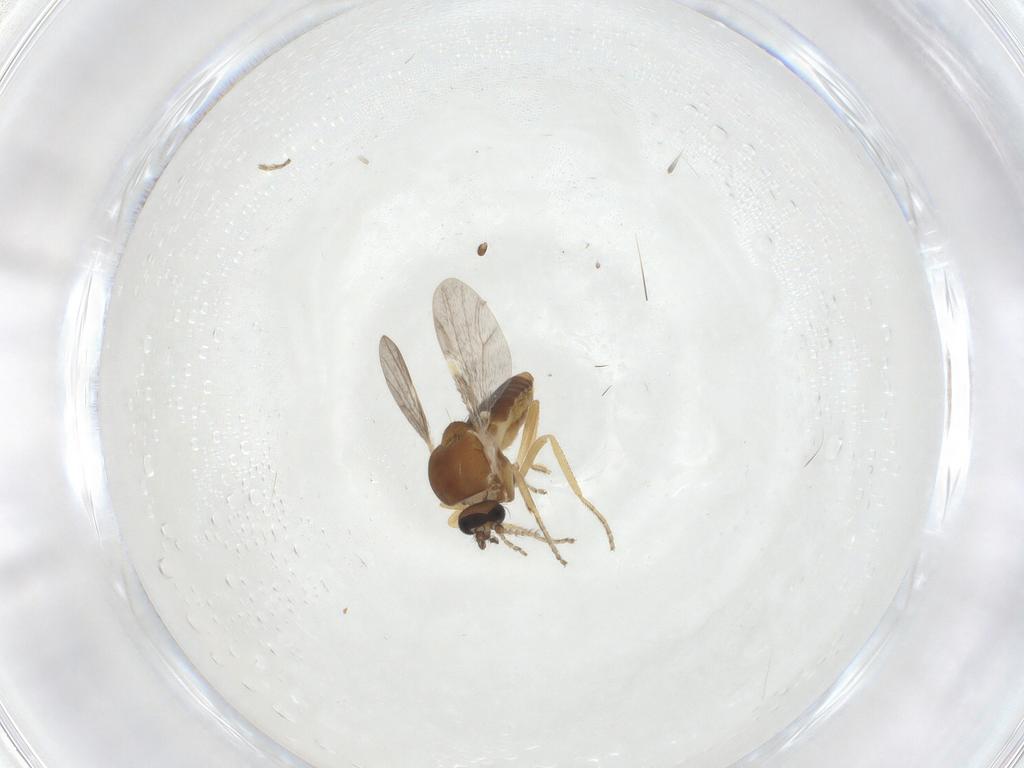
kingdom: Animalia
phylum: Arthropoda
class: Insecta
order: Diptera
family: Ceratopogonidae
